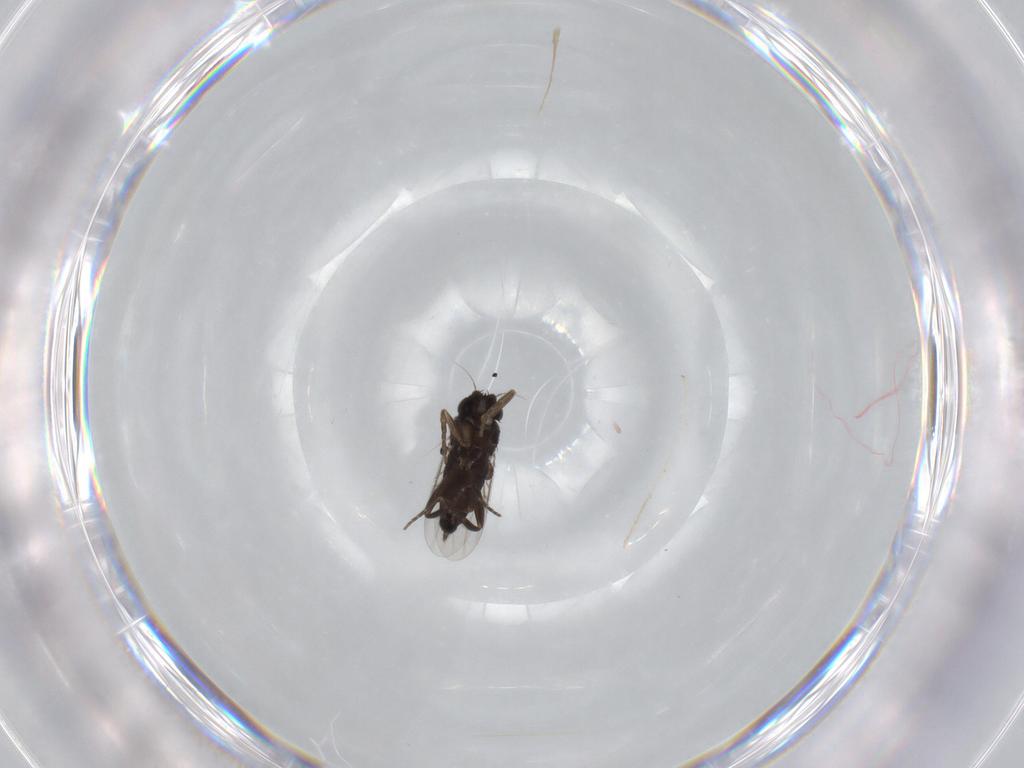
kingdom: Animalia
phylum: Arthropoda
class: Insecta
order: Diptera
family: Phoridae
